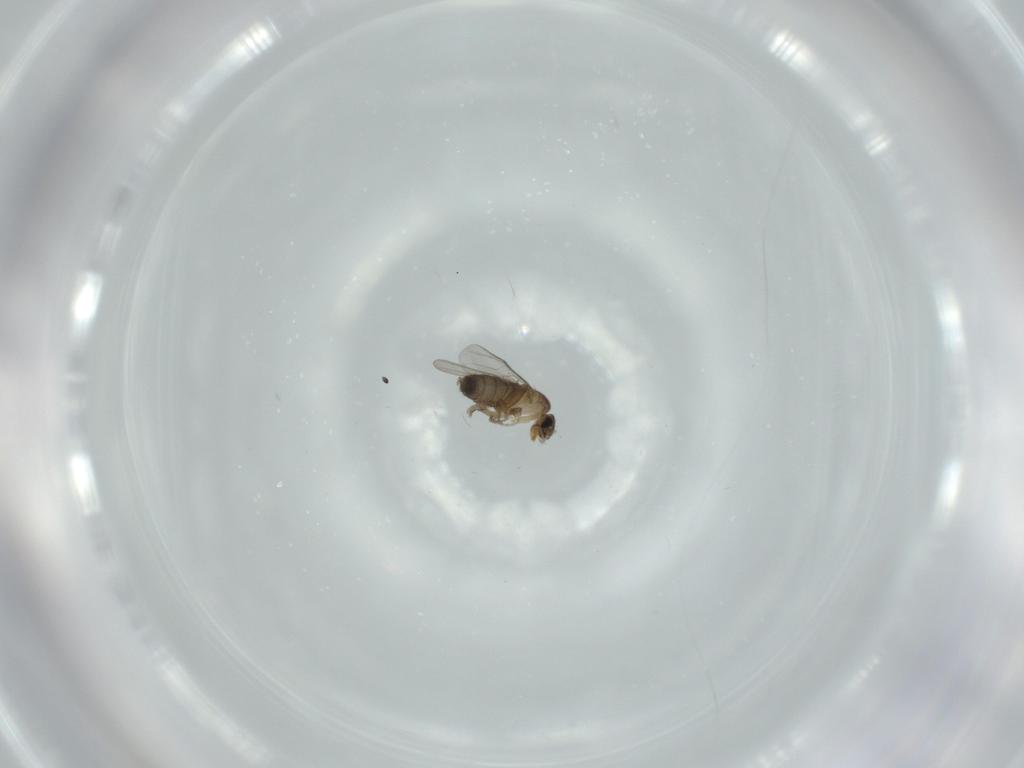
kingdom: Animalia
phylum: Arthropoda
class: Insecta
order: Diptera
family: Phoridae
